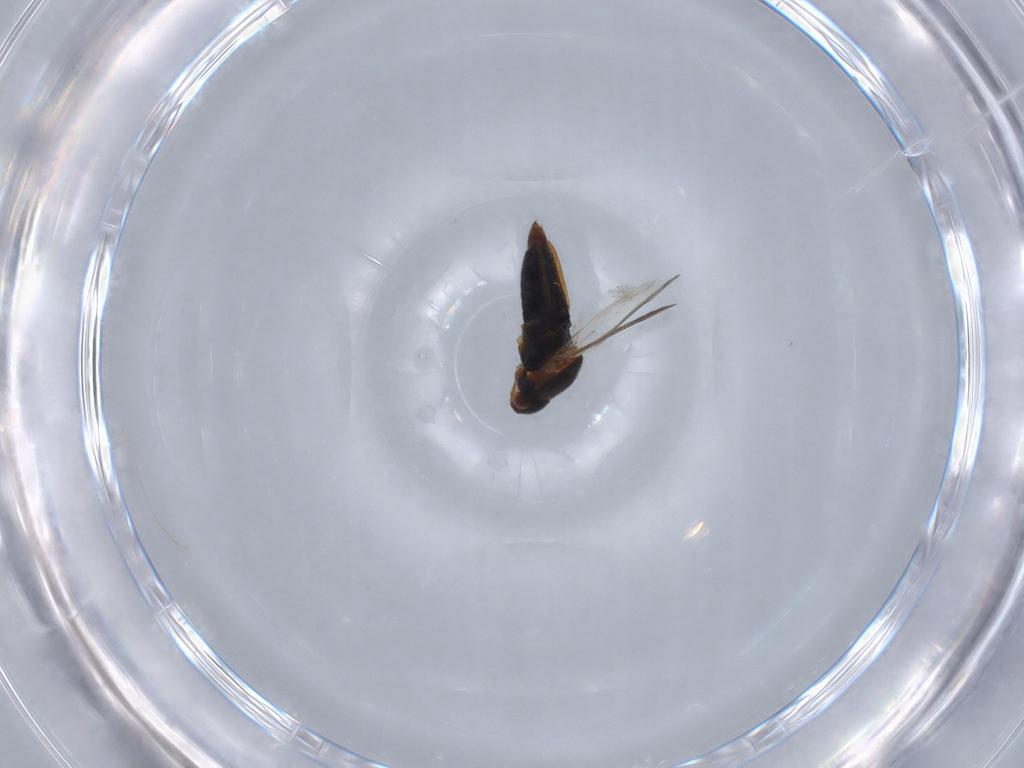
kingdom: Animalia
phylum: Arthropoda
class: Insecta
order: Hemiptera
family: Veliidae
